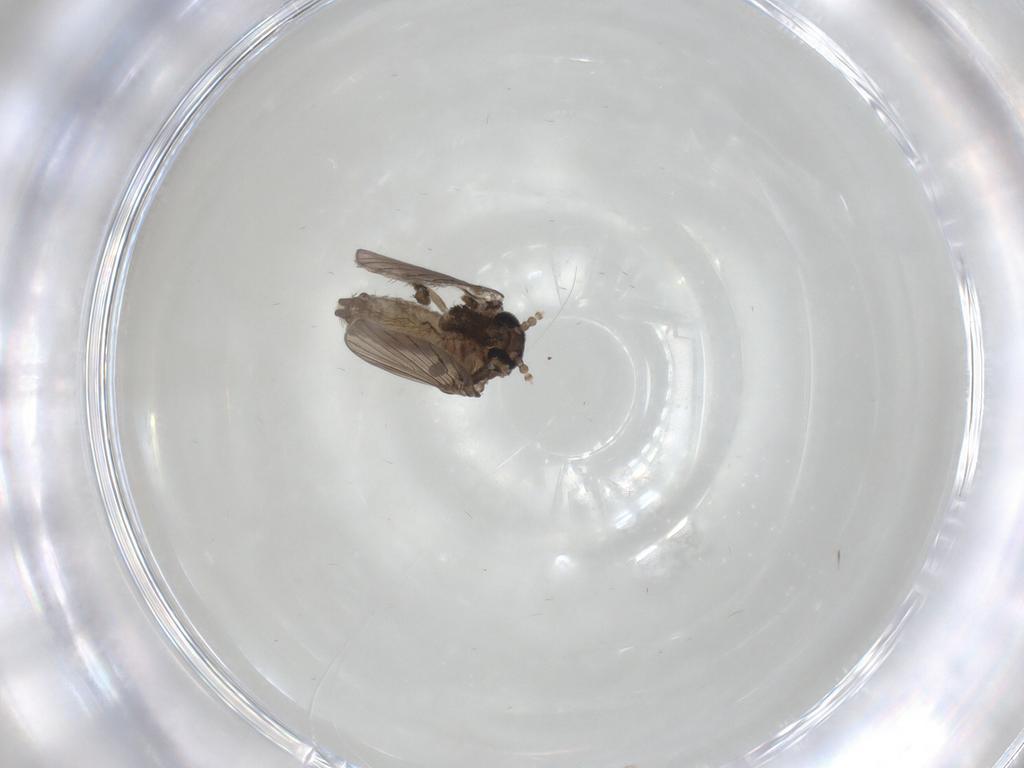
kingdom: Animalia
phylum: Arthropoda
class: Insecta
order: Diptera
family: Psychodidae
